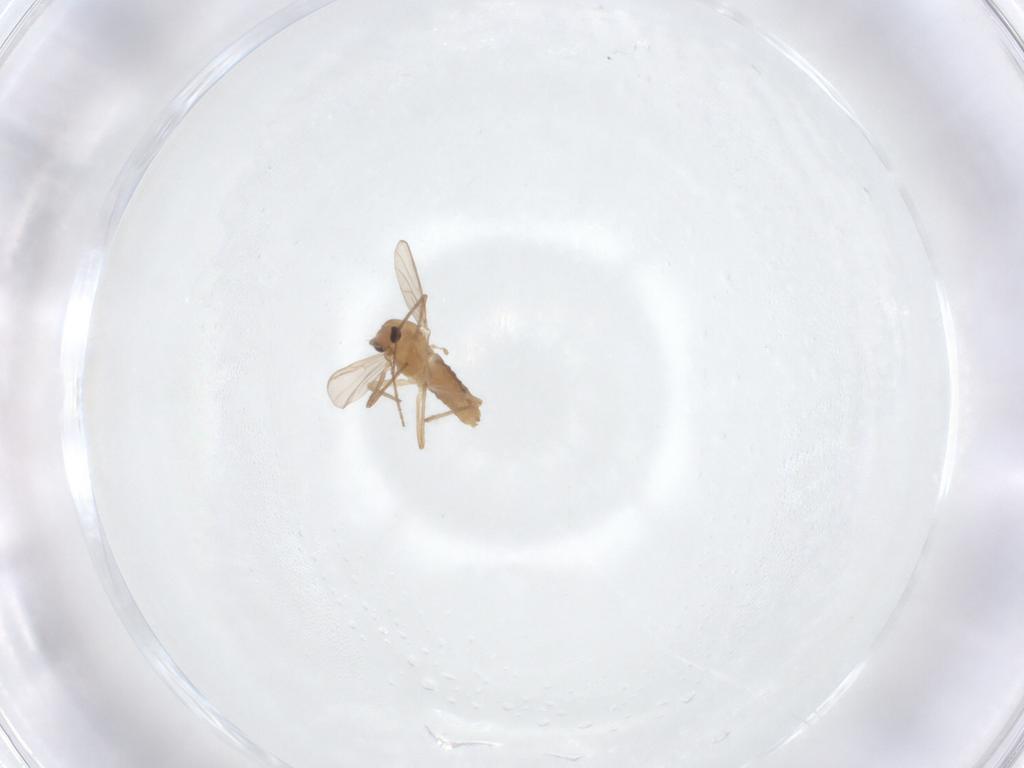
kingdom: Animalia
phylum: Arthropoda
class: Insecta
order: Diptera
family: Chironomidae
